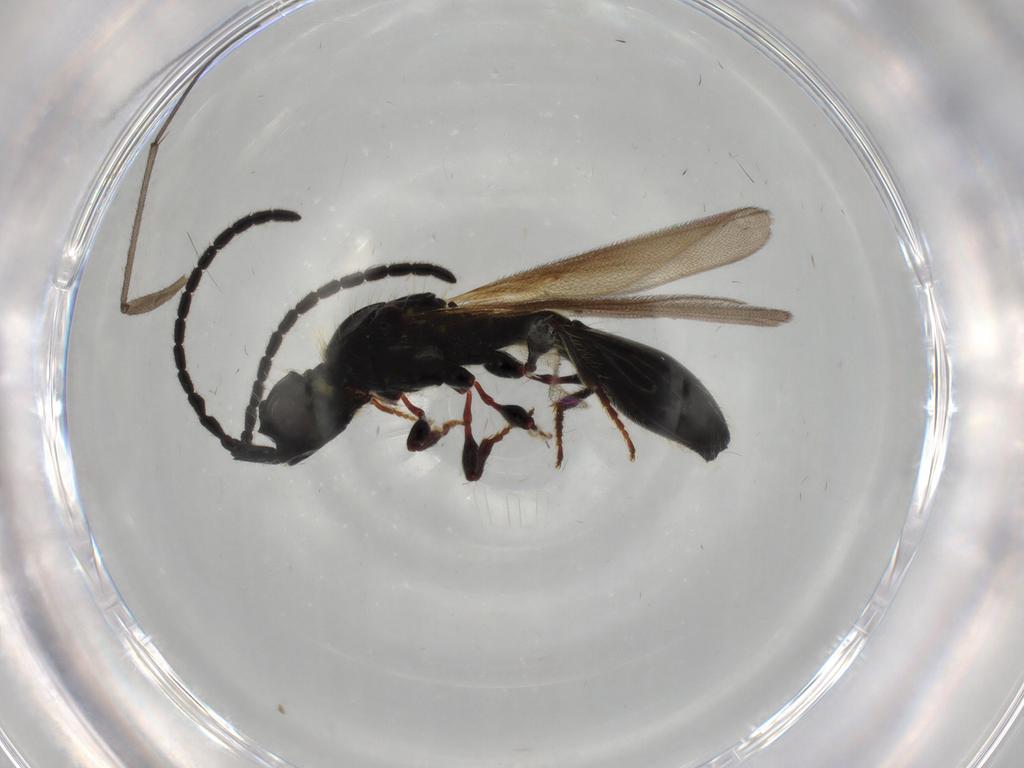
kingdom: Animalia
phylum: Arthropoda
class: Insecta
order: Hymenoptera
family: Diapriidae
